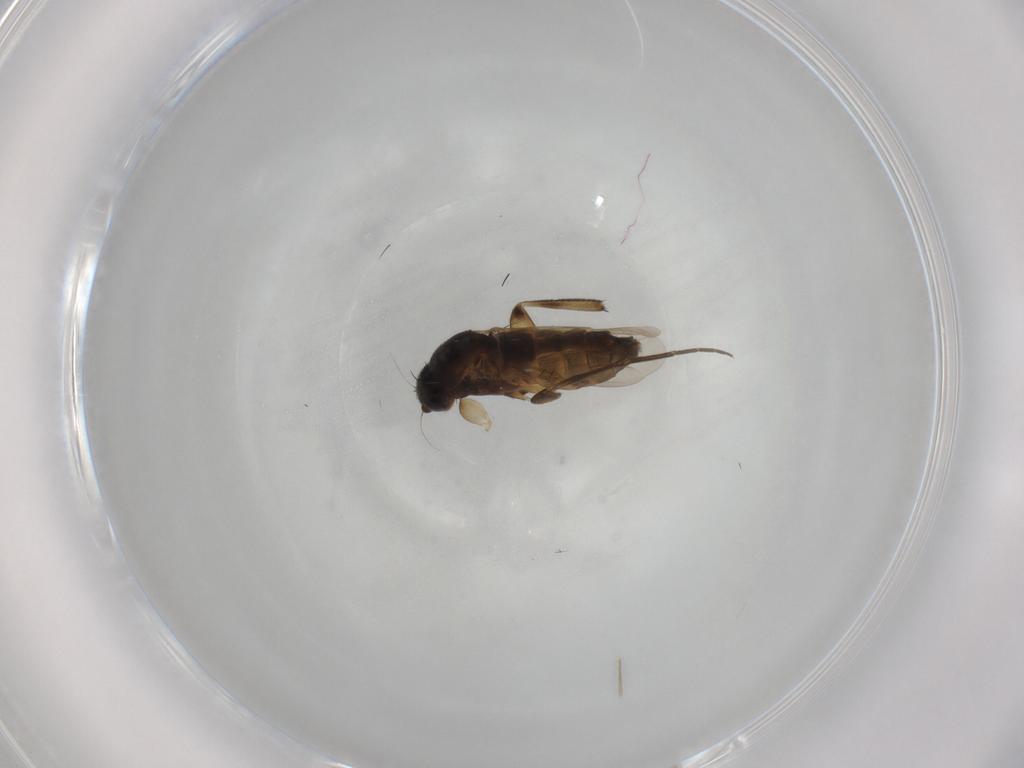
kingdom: Animalia
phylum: Arthropoda
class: Insecta
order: Diptera
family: Phoridae
